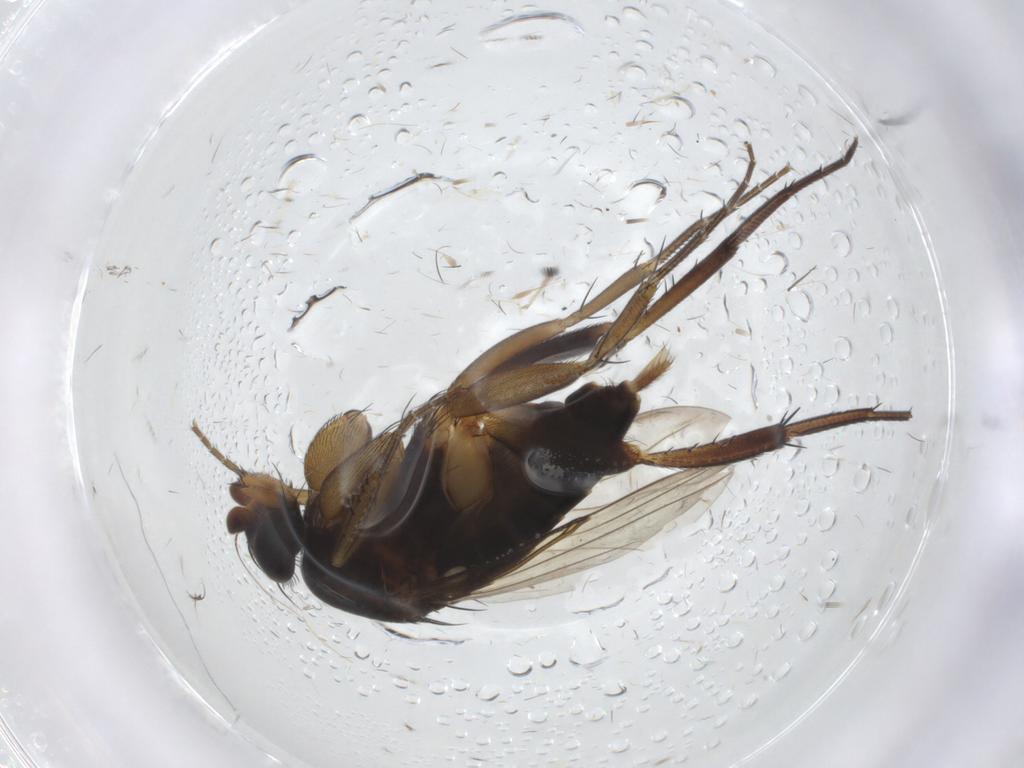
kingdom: Animalia
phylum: Arthropoda
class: Insecta
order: Diptera
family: Phoridae
